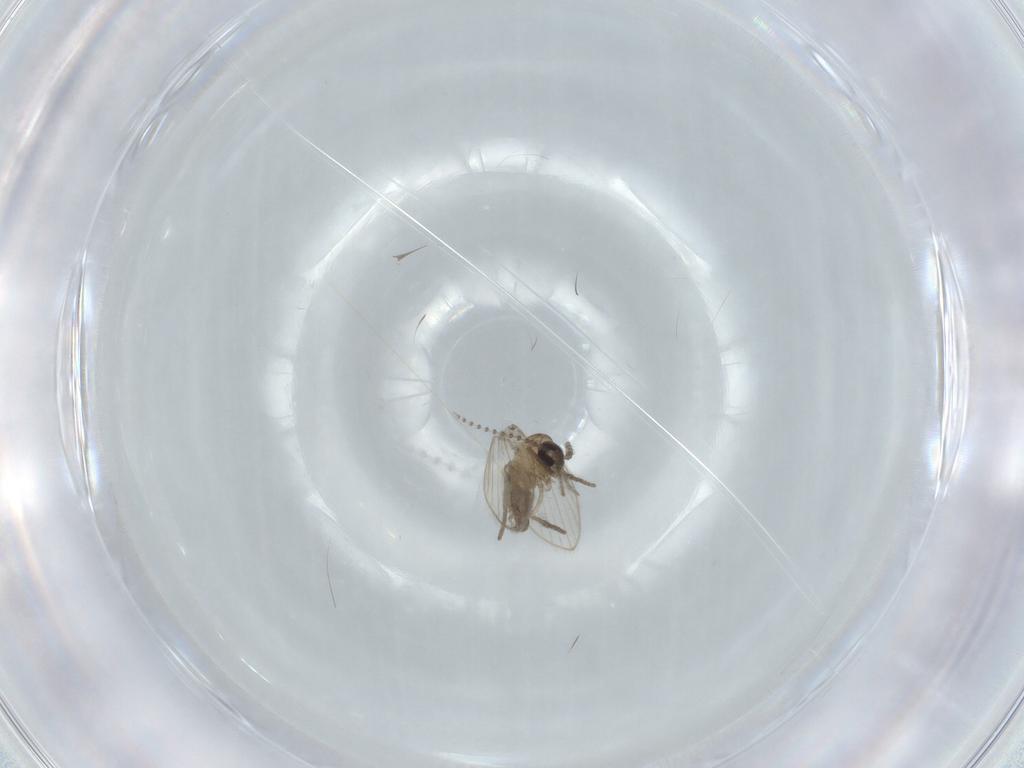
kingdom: Animalia
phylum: Arthropoda
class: Insecta
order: Diptera
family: Psychodidae
